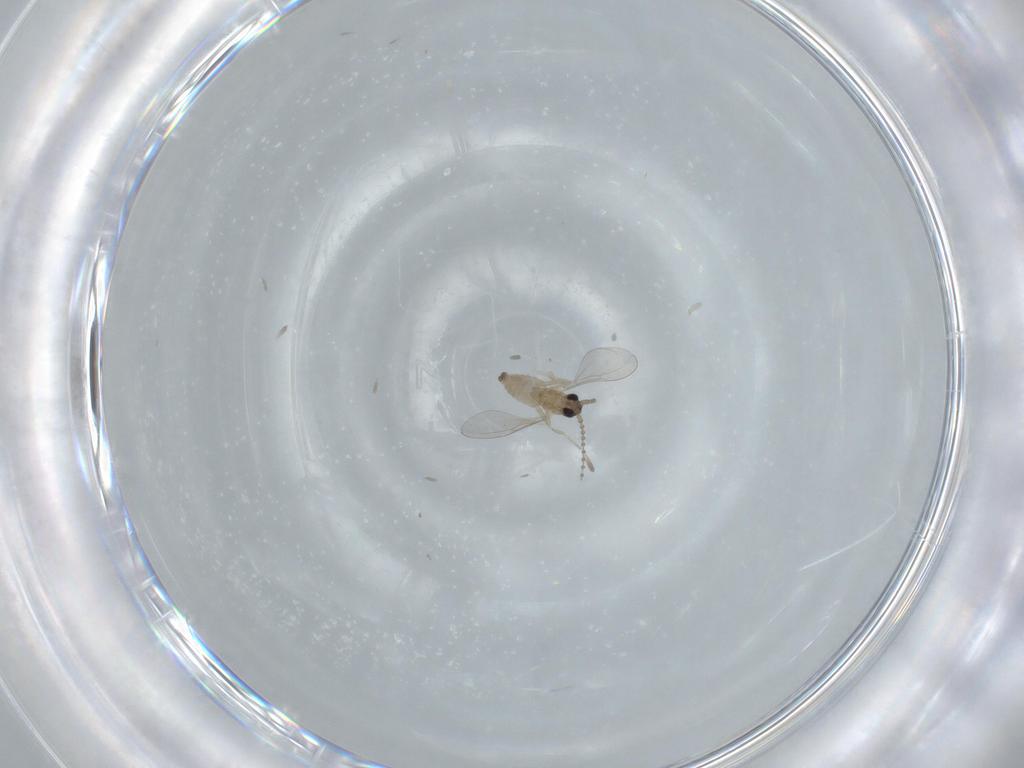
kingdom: Animalia
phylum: Arthropoda
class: Insecta
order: Diptera
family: Cecidomyiidae
